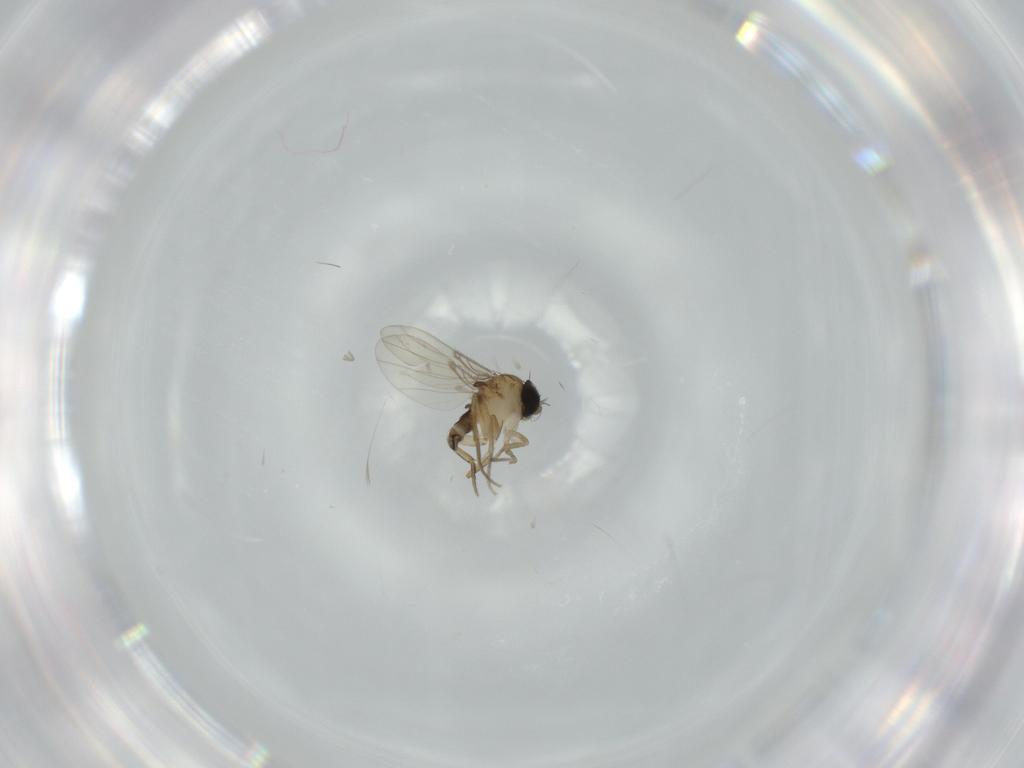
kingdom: Animalia
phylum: Arthropoda
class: Insecta
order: Diptera
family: Phoridae
